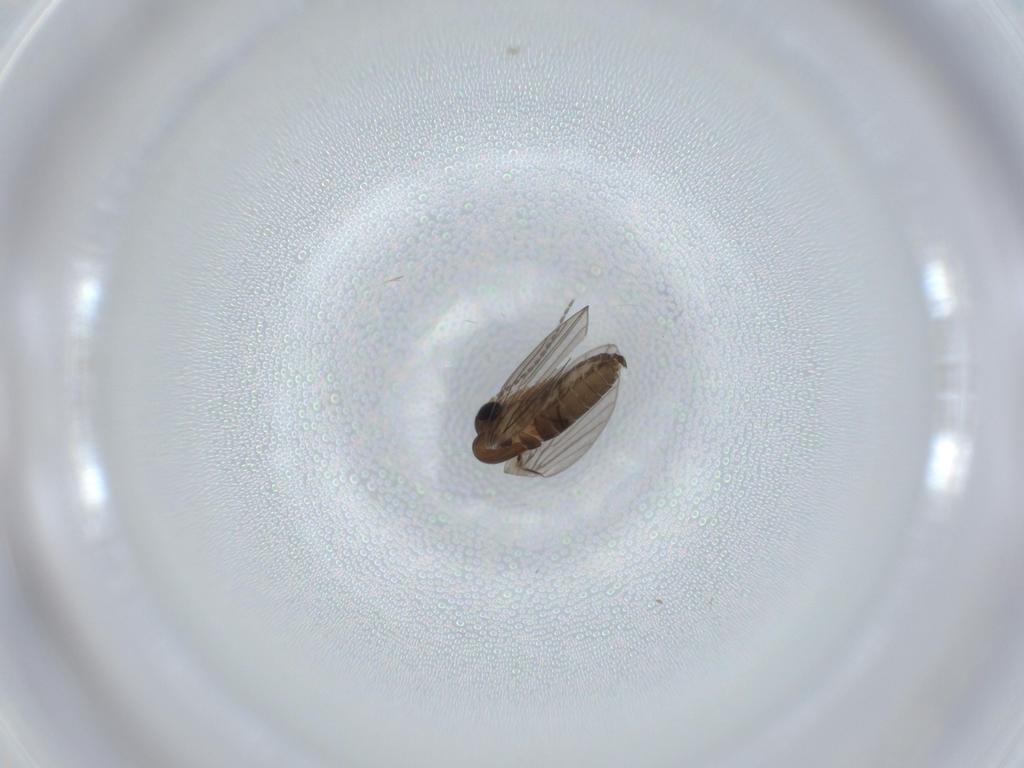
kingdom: Animalia
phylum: Arthropoda
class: Insecta
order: Diptera
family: Psychodidae
